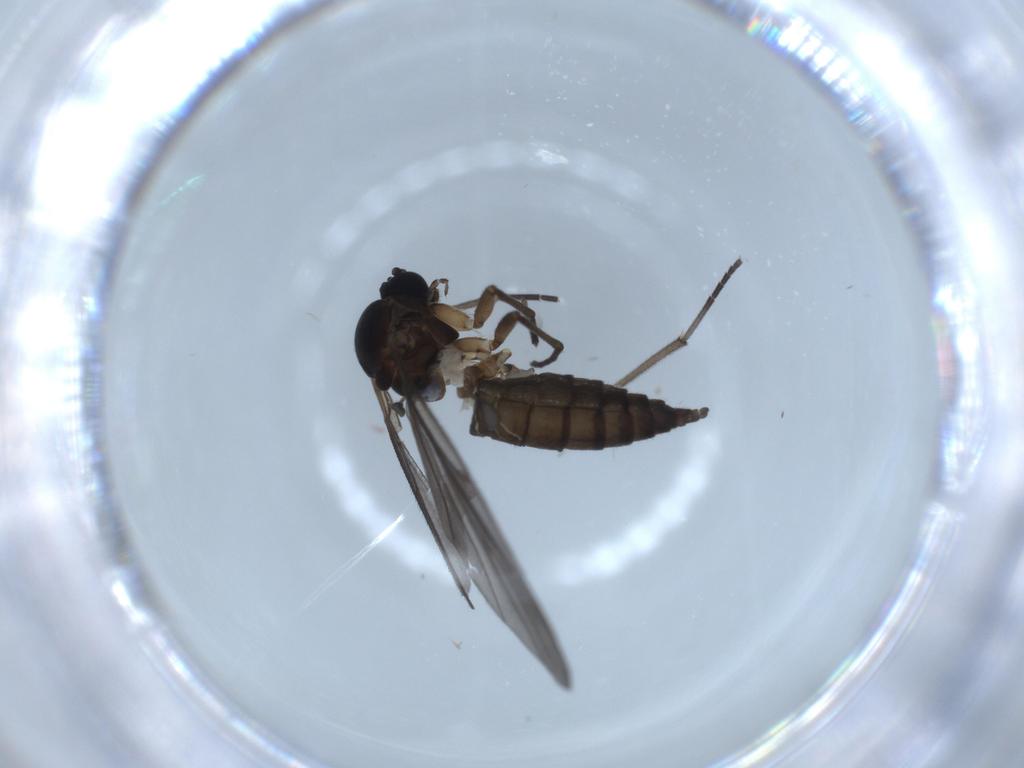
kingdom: Animalia
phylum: Arthropoda
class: Insecta
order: Diptera
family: Sciaridae
